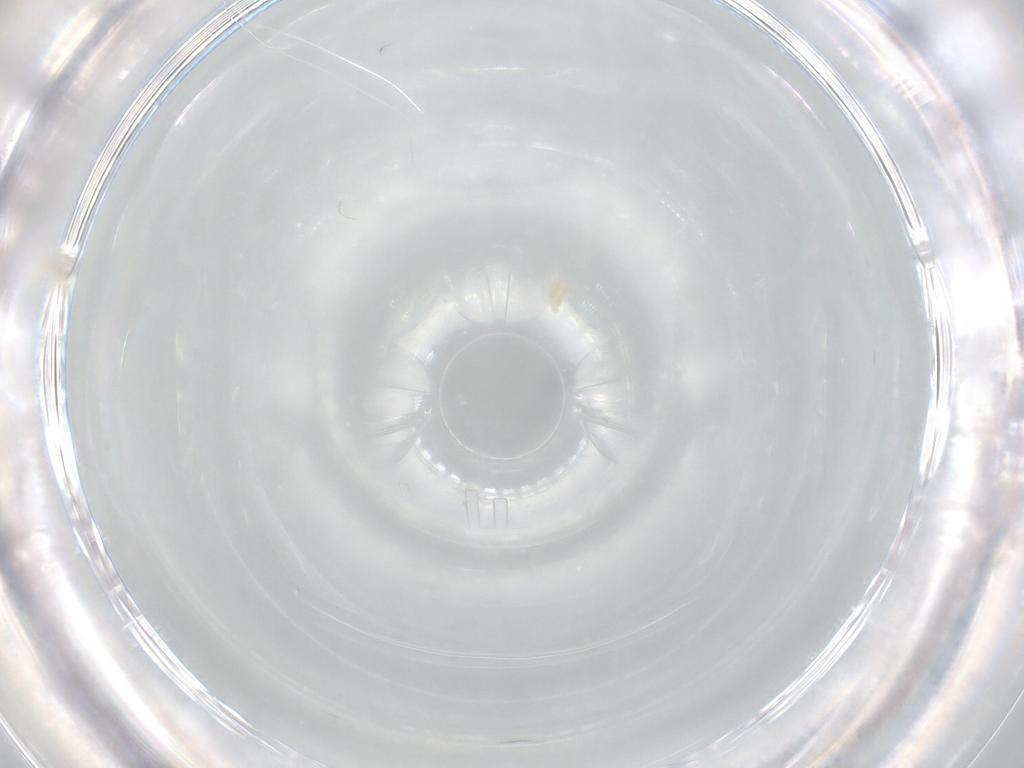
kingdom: Animalia
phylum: Arthropoda
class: Arachnida
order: Trombidiformes
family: Eupodidae
